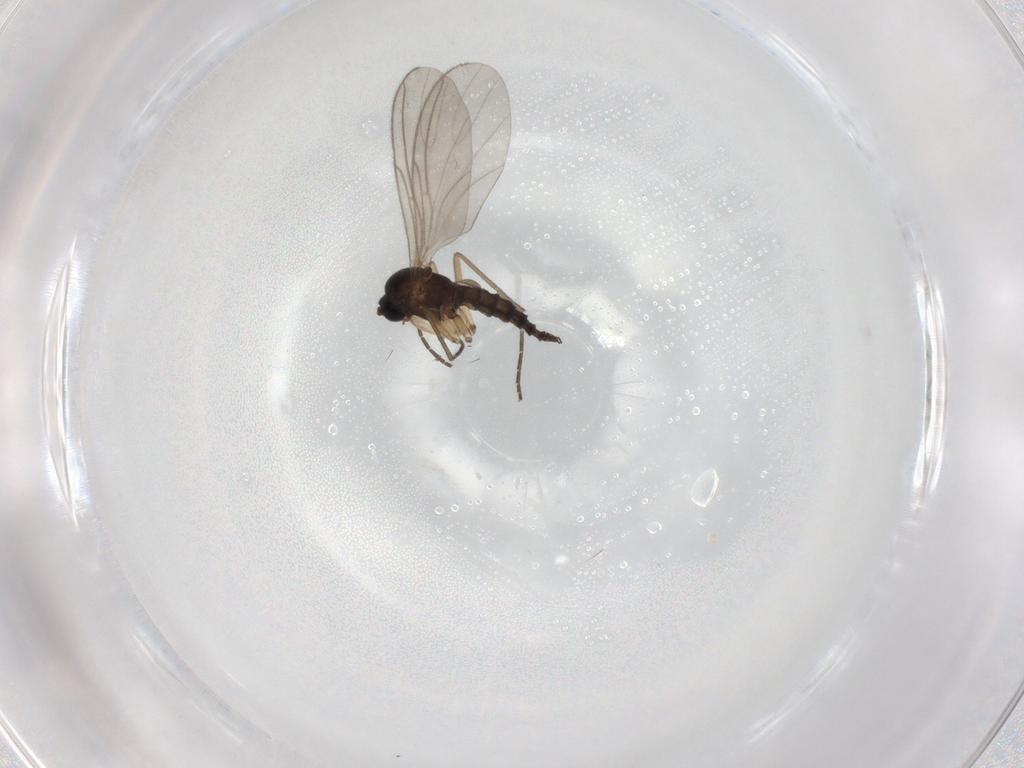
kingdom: Animalia
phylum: Arthropoda
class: Insecta
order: Diptera
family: Sciaridae
